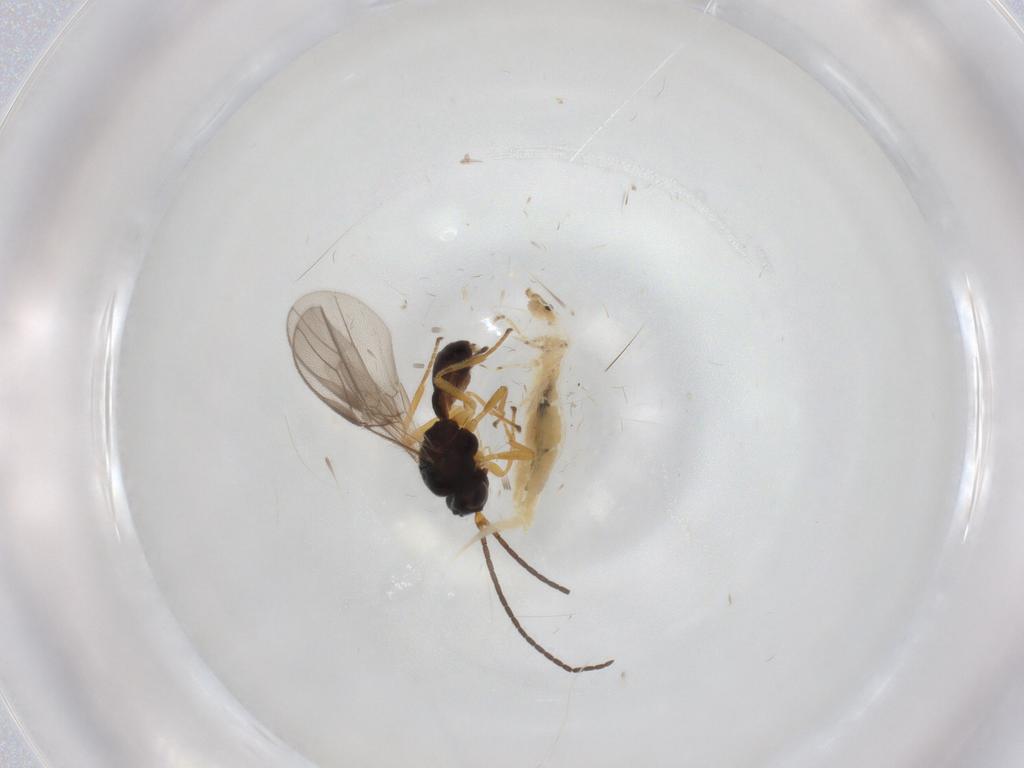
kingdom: Animalia
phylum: Arthropoda
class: Insecta
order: Hymenoptera
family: Braconidae
